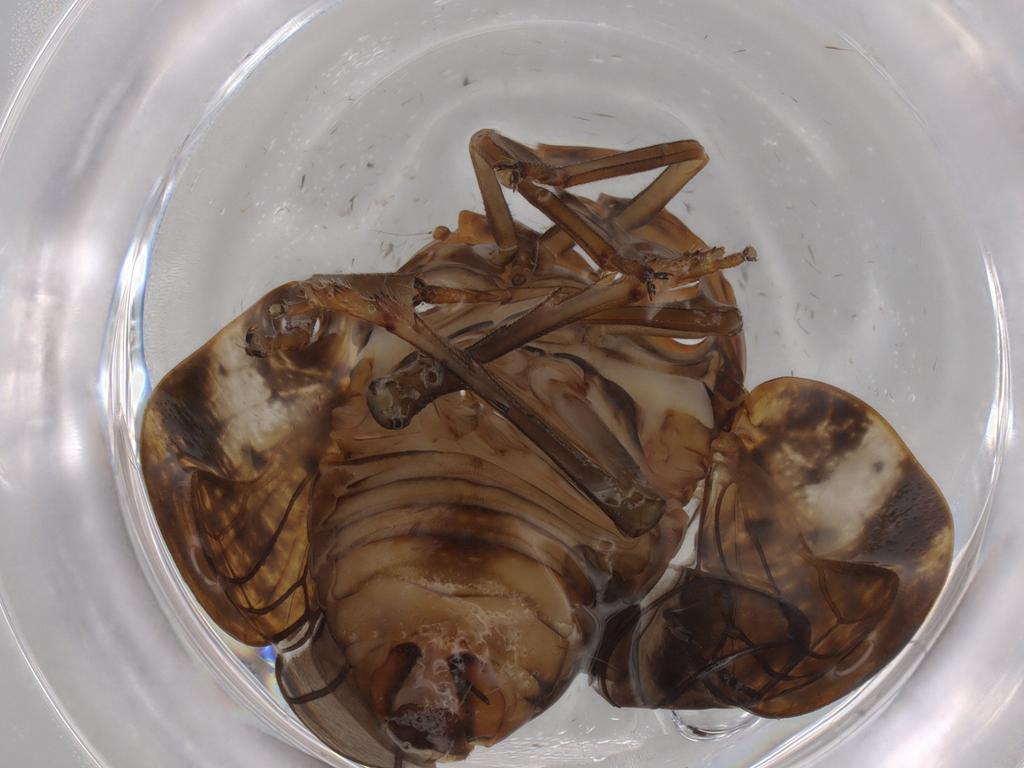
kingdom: Animalia
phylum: Arthropoda
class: Insecta
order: Hemiptera
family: Issidae
